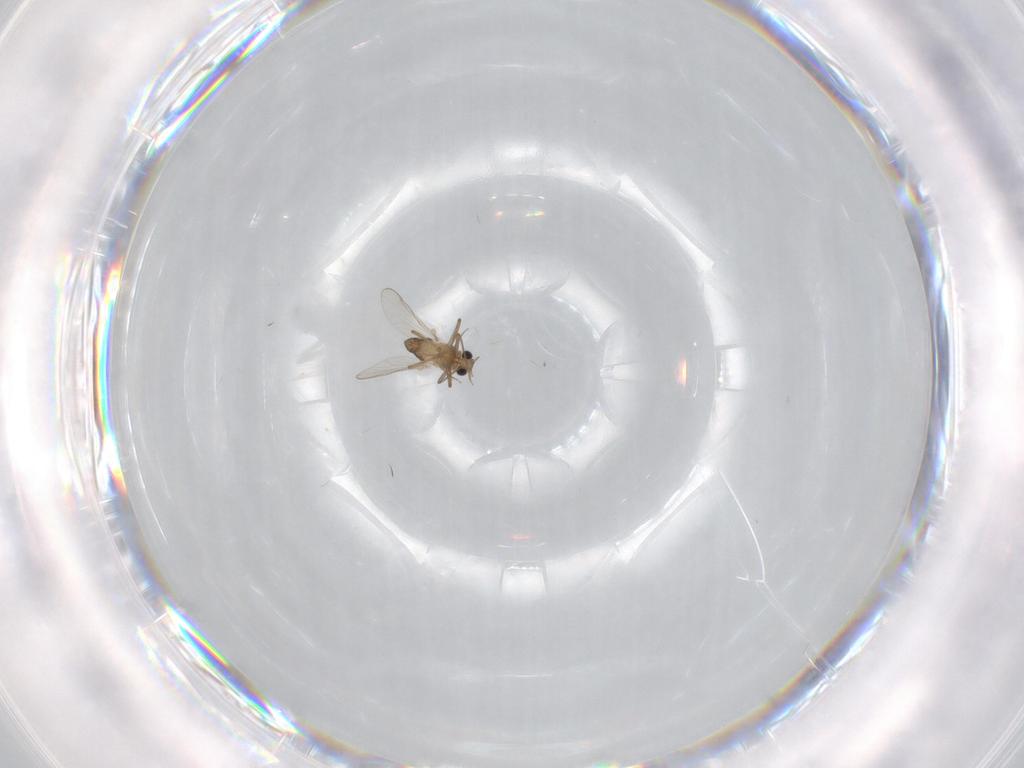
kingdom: Animalia
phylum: Arthropoda
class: Insecta
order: Diptera
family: Chironomidae
